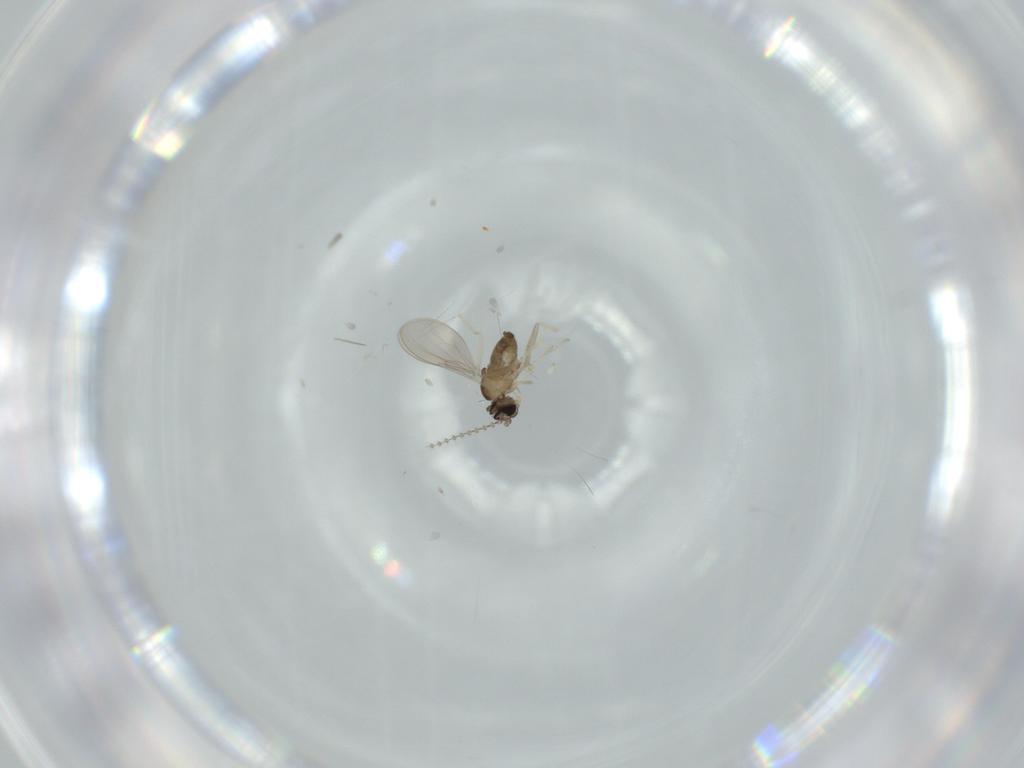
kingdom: Animalia
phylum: Arthropoda
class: Insecta
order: Diptera
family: Cecidomyiidae
